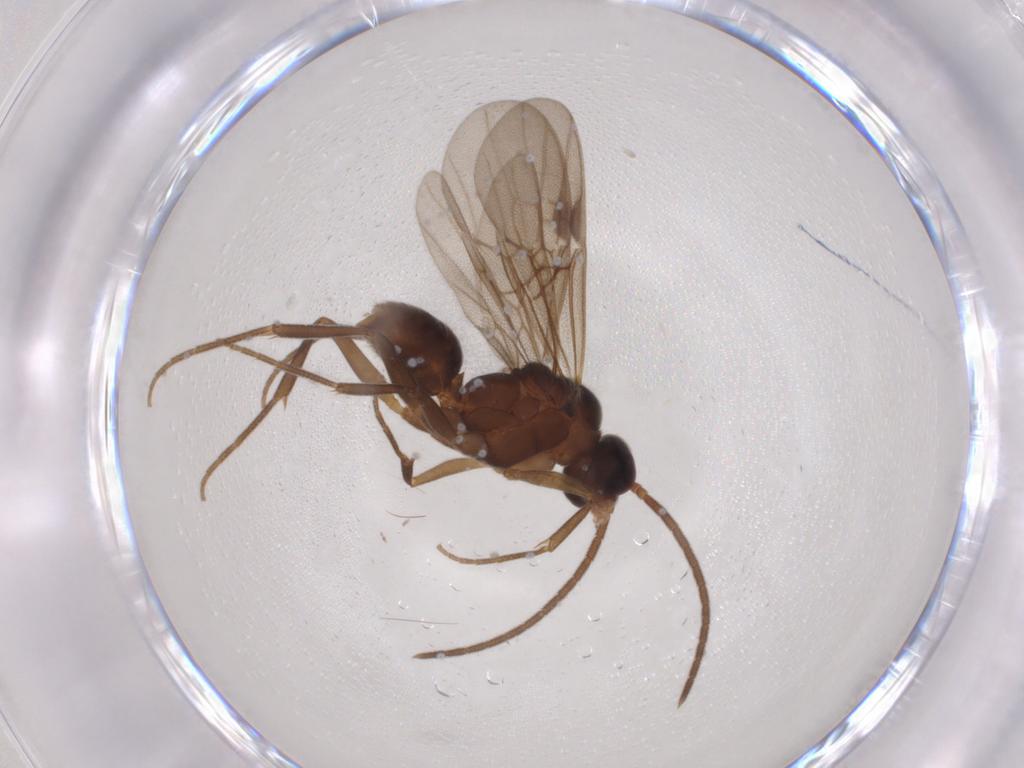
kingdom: Animalia
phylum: Arthropoda
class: Insecta
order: Hymenoptera
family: Formicidae
